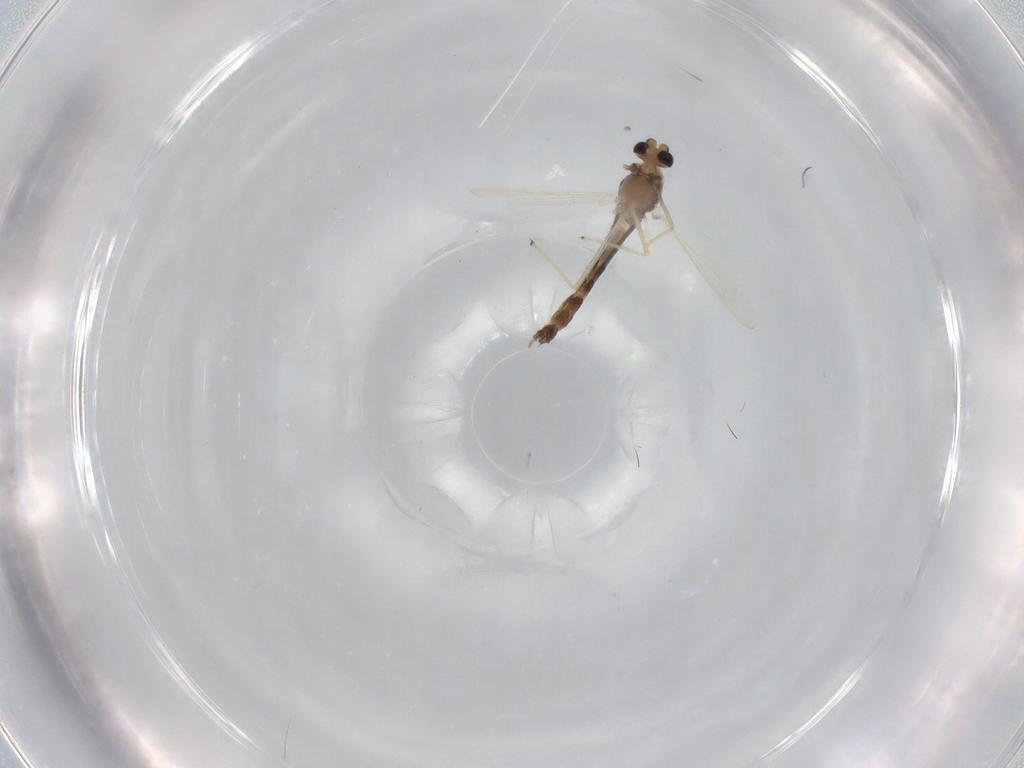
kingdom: Animalia
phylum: Arthropoda
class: Insecta
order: Diptera
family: Chironomidae
